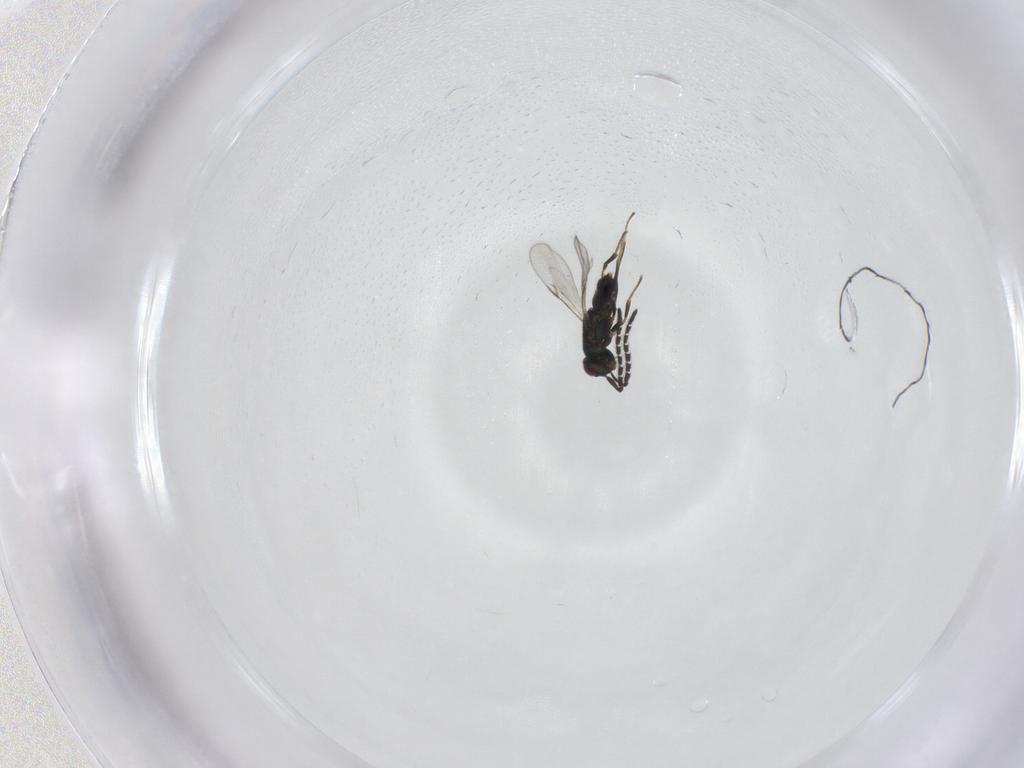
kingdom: Animalia
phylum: Arthropoda
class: Insecta
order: Hymenoptera
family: Encyrtidae
